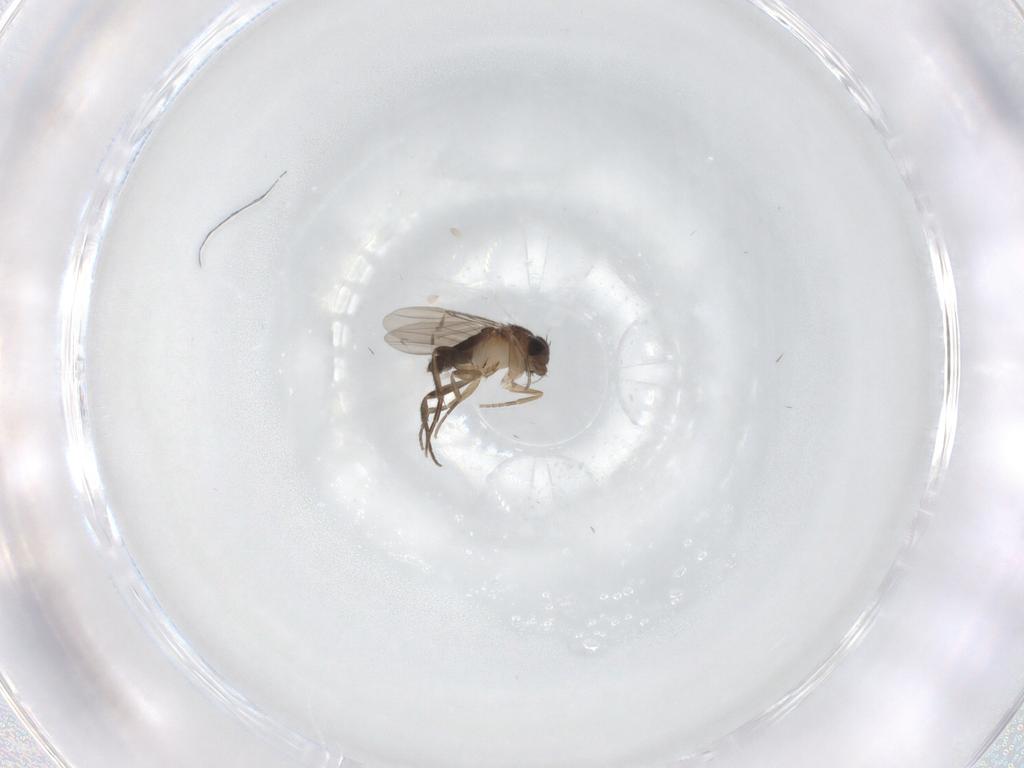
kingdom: Animalia
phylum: Arthropoda
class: Insecta
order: Diptera
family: Phoridae
